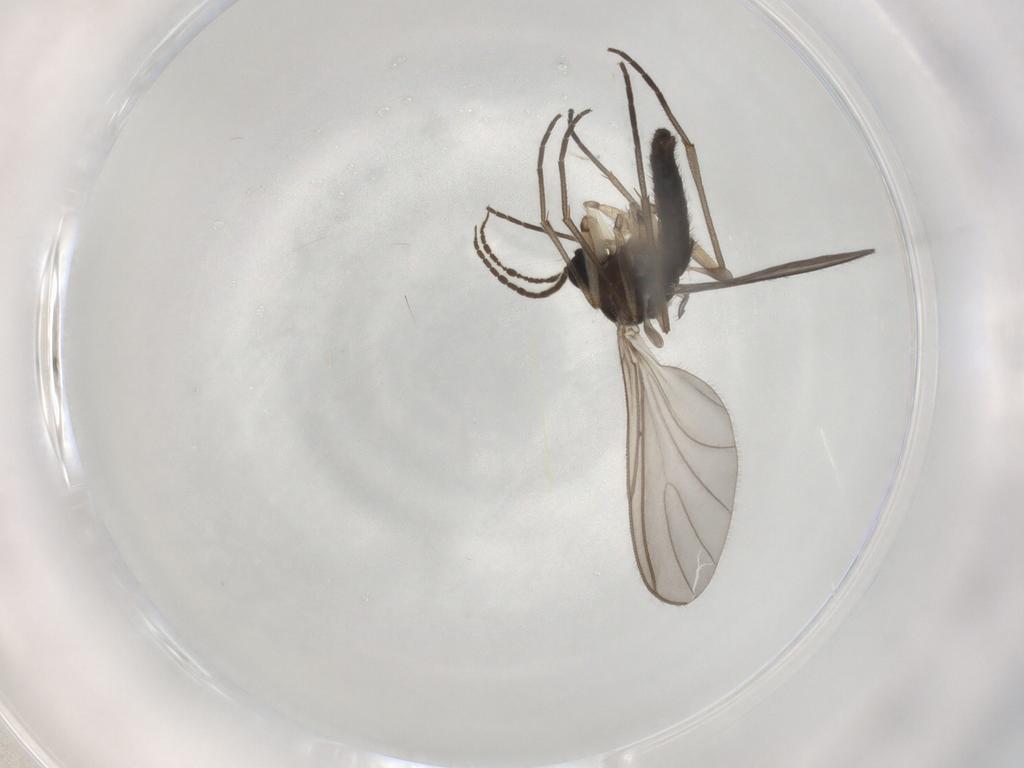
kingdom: Animalia
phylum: Arthropoda
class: Insecta
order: Diptera
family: Sciaridae
